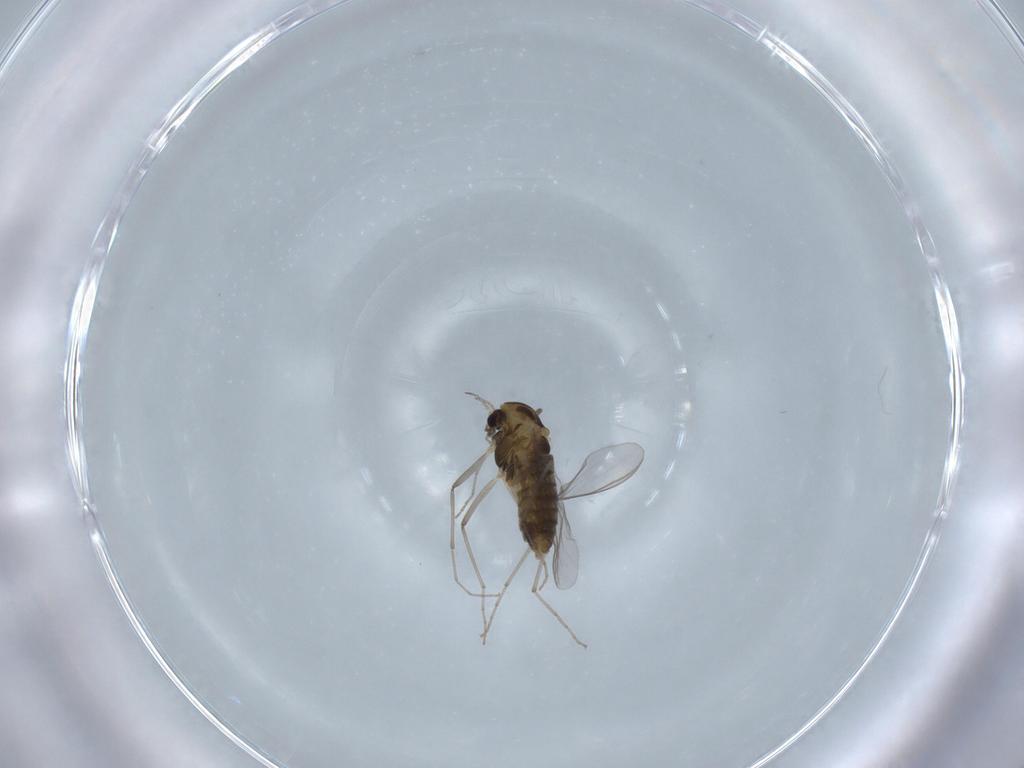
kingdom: Animalia
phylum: Arthropoda
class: Insecta
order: Diptera
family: Chironomidae
